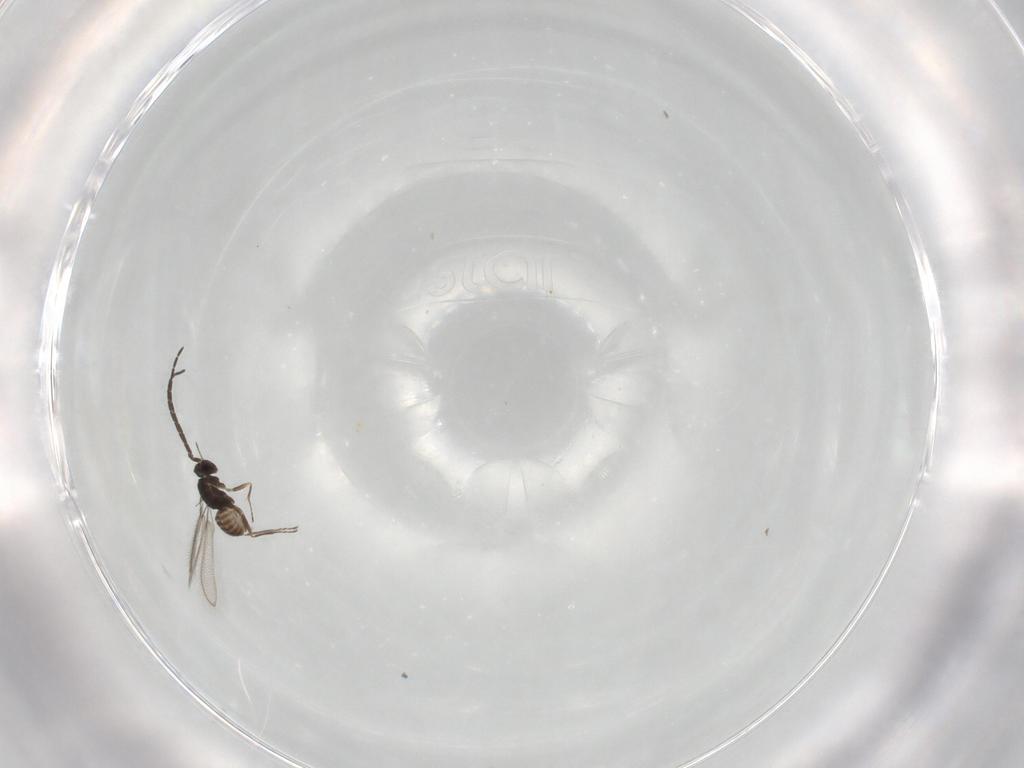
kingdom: Animalia
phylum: Arthropoda
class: Insecta
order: Hymenoptera
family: Mymaridae
